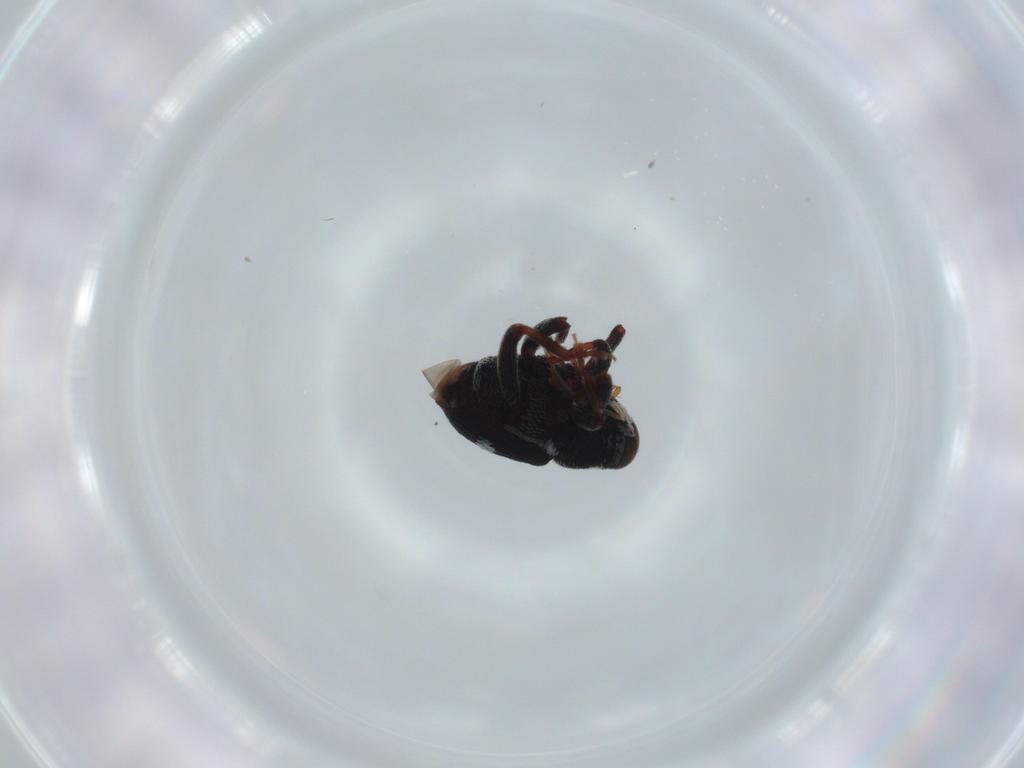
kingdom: Animalia
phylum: Arthropoda
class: Insecta
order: Coleoptera
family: Curculionidae
